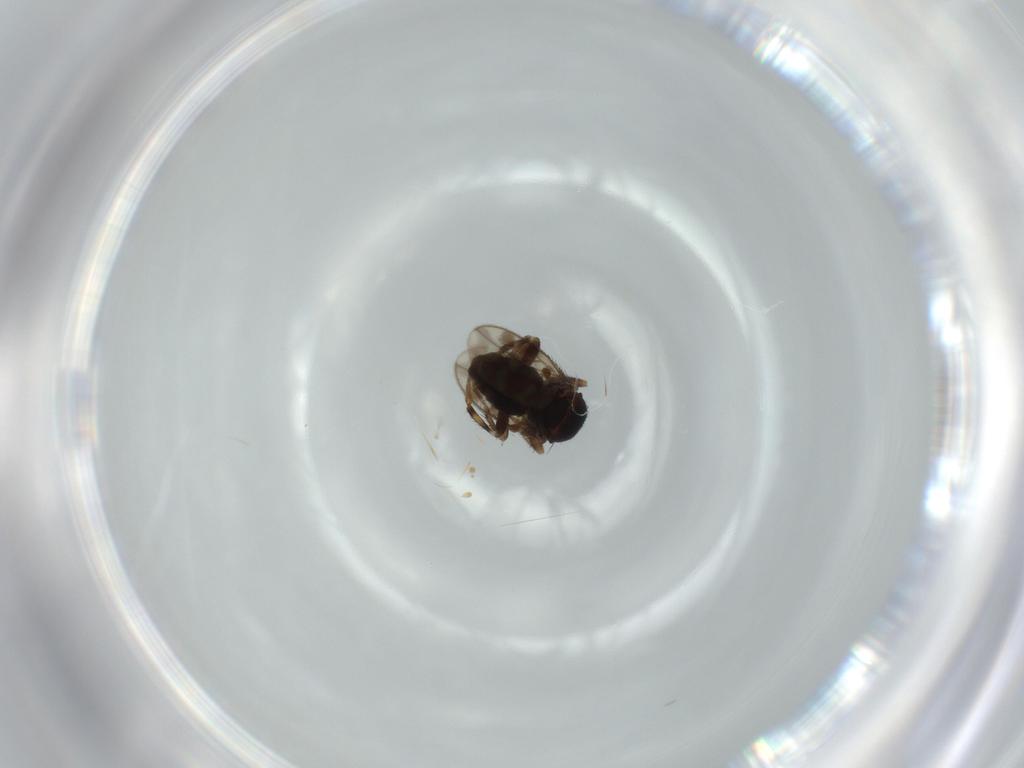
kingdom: Animalia
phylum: Arthropoda
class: Insecta
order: Diptera
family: Sphaeroceridae
